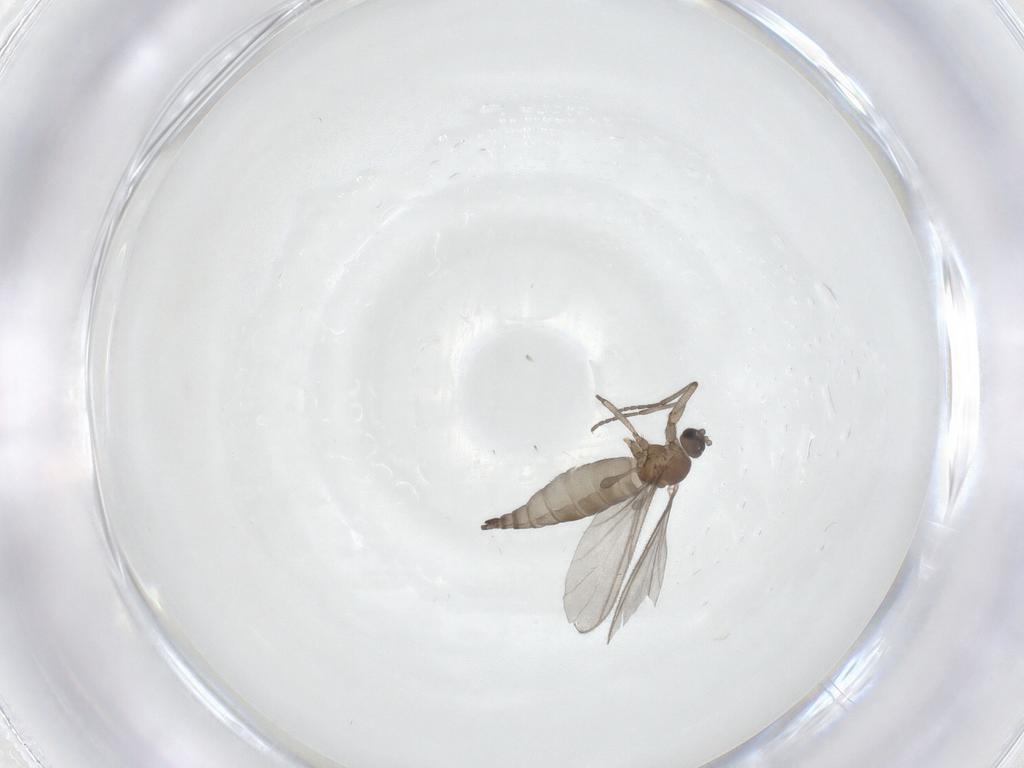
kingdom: Animalia
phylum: Arthropoda
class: Insecta
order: Diptera
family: Sciaridae
